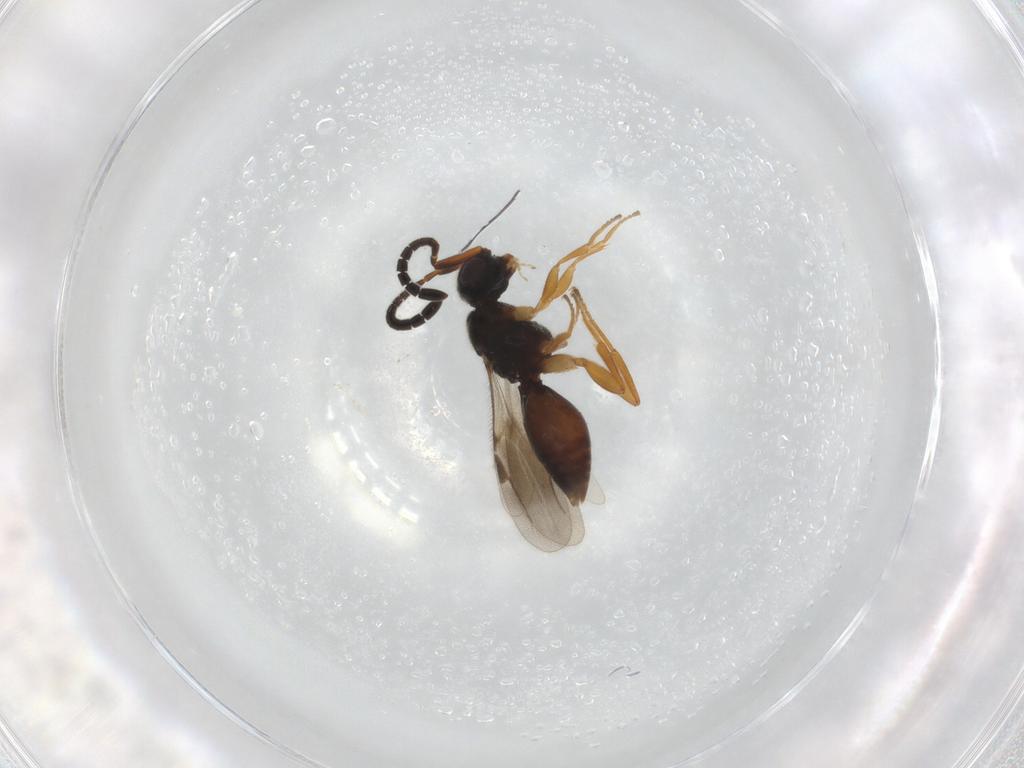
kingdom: Animalia
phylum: Arthropoda
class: Insecta
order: Hymenoptera
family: Megaspilidae
